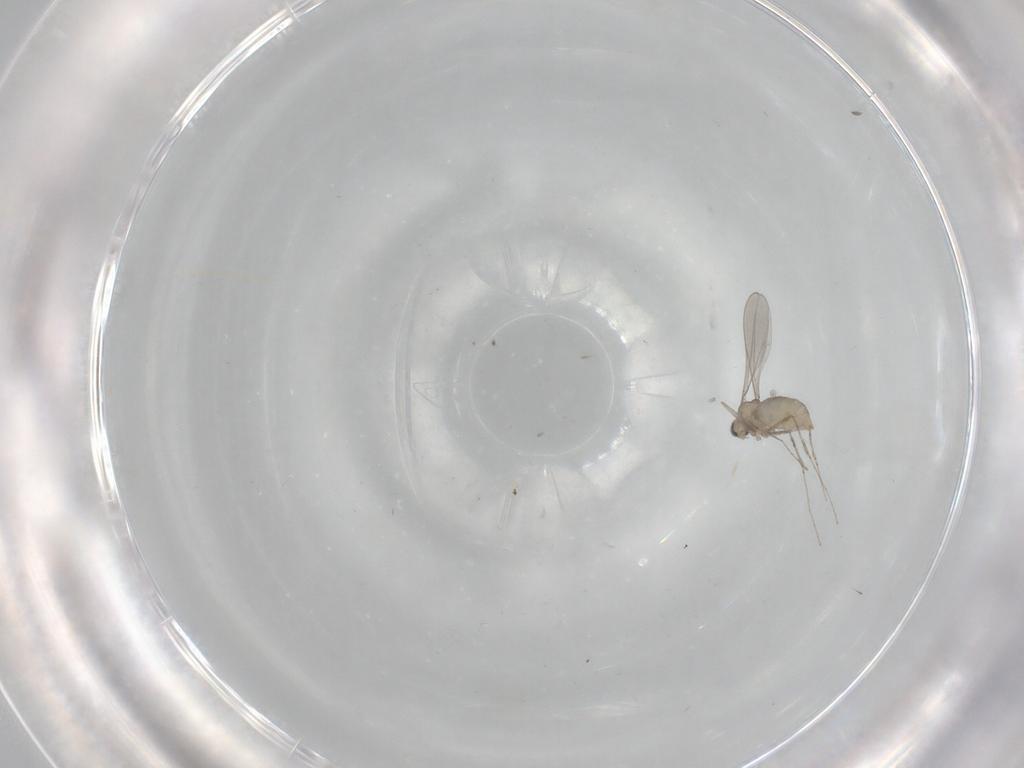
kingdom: Animalia
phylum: Arthropoda
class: Insecta
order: Diptera
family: Cecidomyiidae
